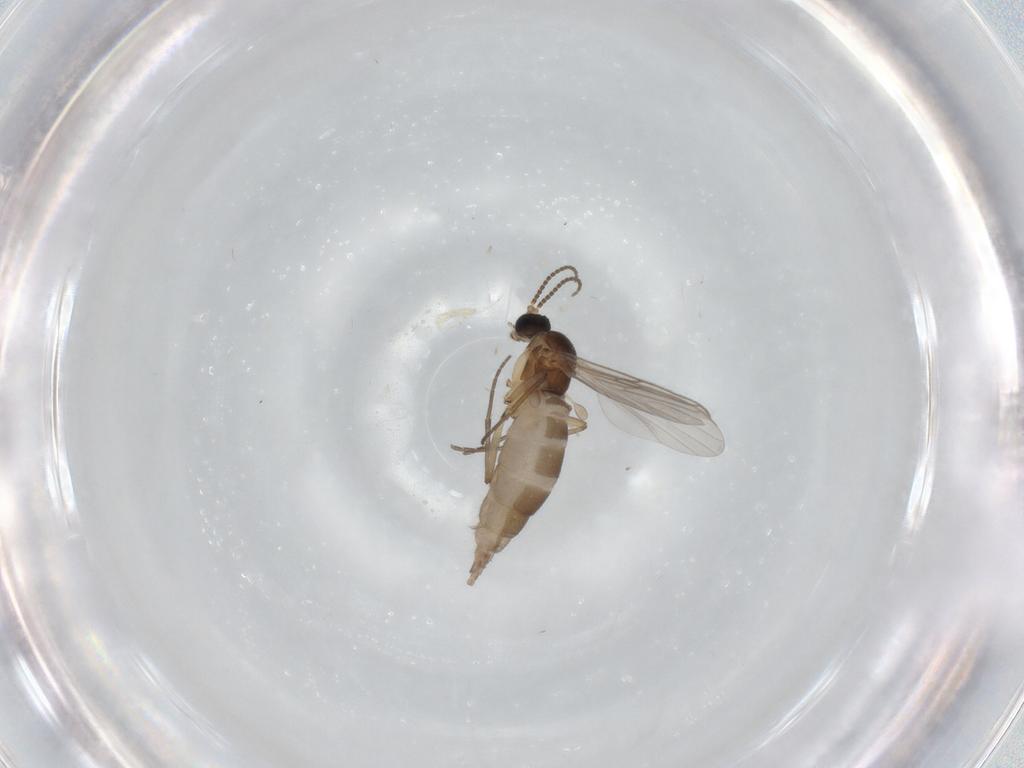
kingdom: Animalia
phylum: Arthropoda
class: Insecta
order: Diptera
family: Sciaridae
